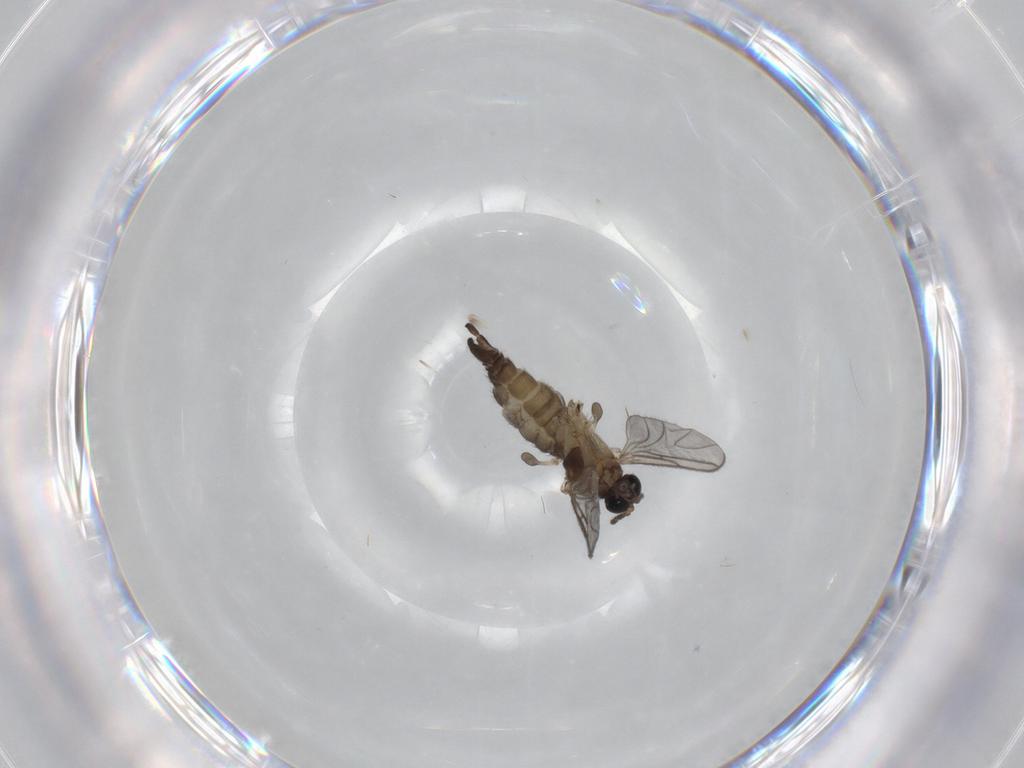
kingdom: Animalia
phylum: Arthropoda
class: Insecta
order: Diptera
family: Sciaridae
